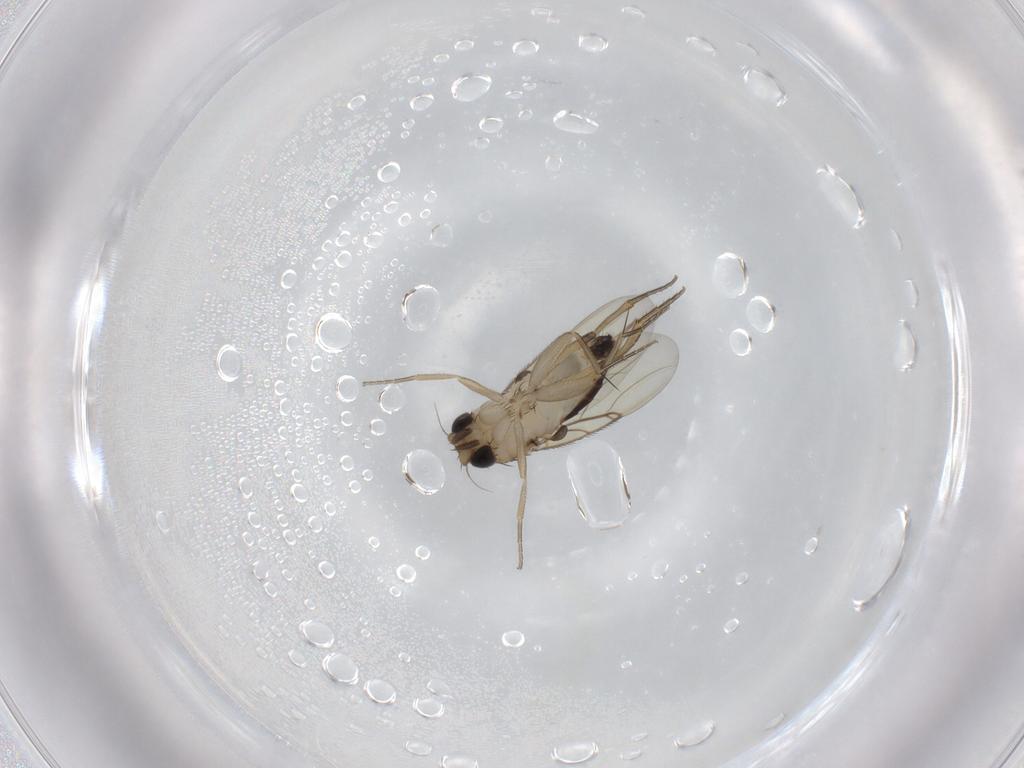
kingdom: Animalia
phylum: Arthropoda
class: Insecta
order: Diptera
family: Phoridae
